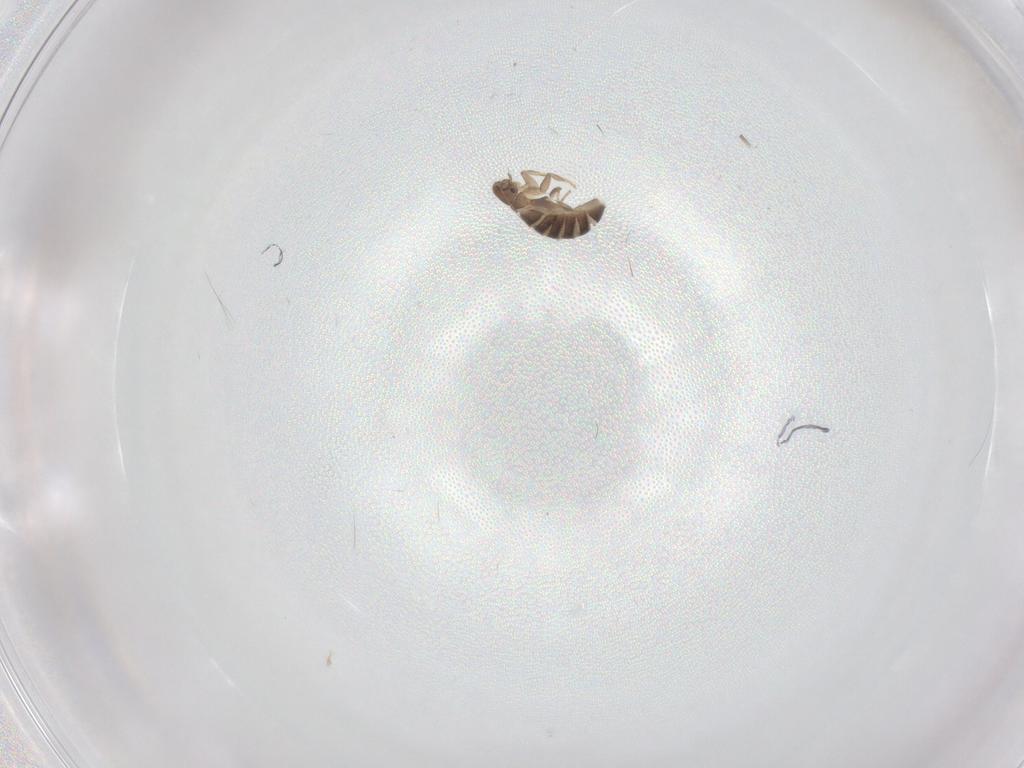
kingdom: Animalia
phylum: Arthropoda
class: Insecta
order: Diptera
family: Lauxaniidae
